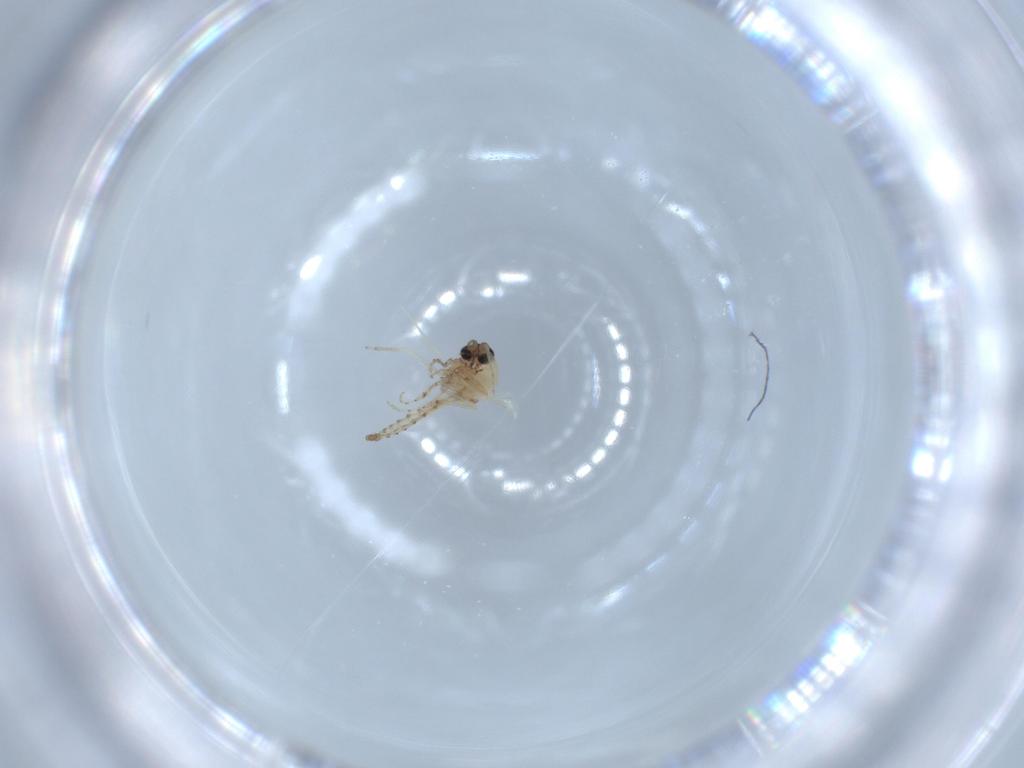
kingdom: Animalia
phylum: Arthropoda
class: Insecta
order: Diptera
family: Ceratopogonidae
